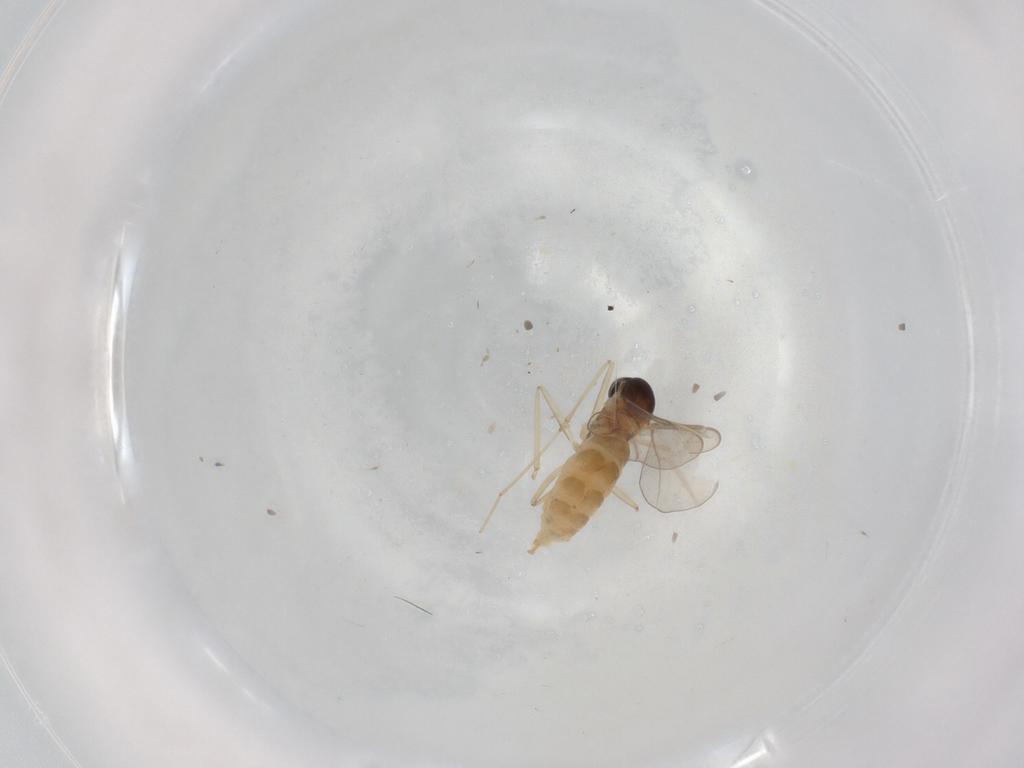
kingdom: Animalia
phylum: Arthropoda
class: Insecta
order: Diptera
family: Cecidomyiidae
